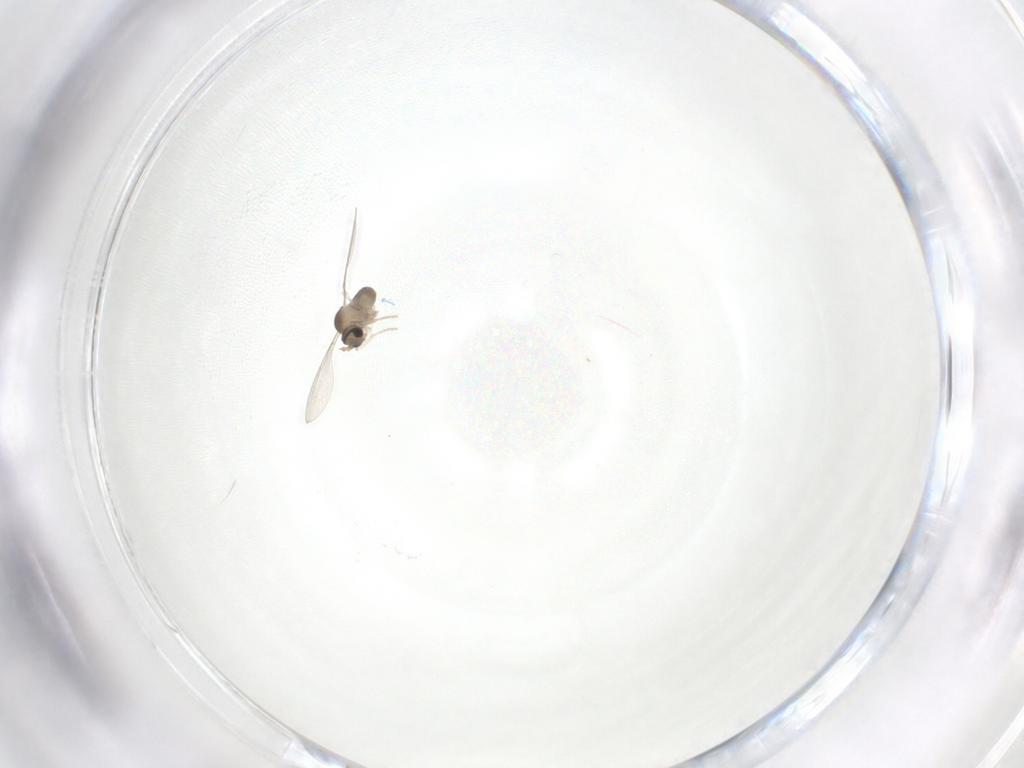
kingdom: Animalia
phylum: Arthropoda
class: Insecta
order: Diptera
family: Cecidomyiidae
